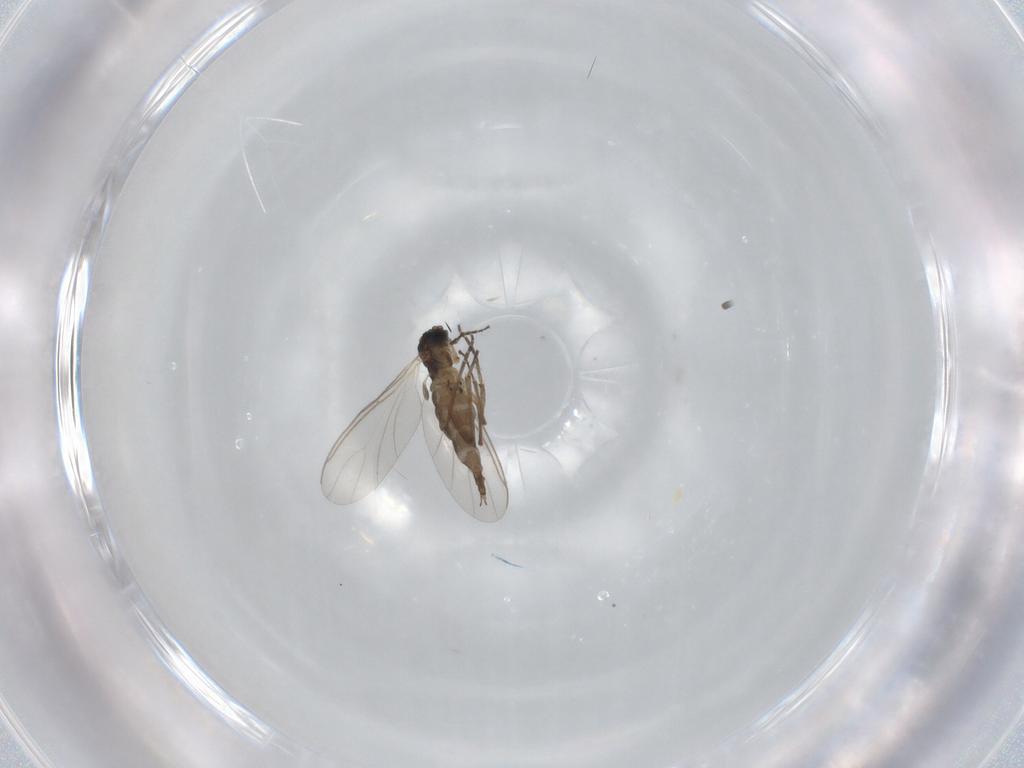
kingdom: Animalia
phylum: Arthropoda
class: Insecta
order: Diptera
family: Sciaridae
